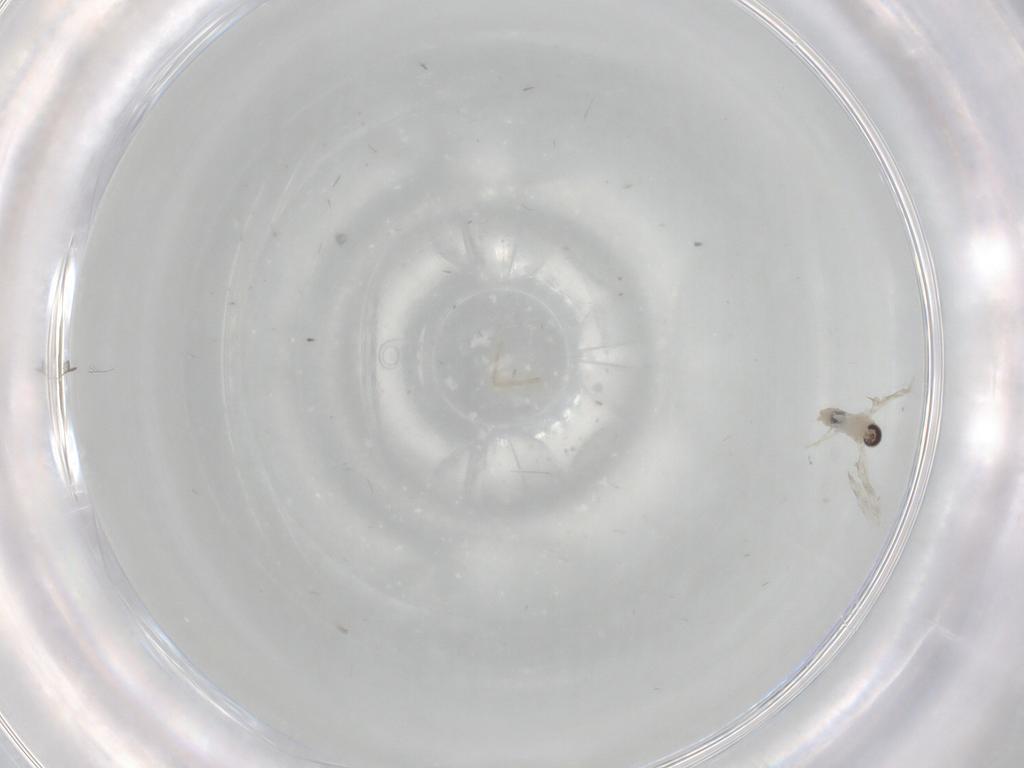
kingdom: Animalia
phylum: Arthropoda
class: Insecta
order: Diptera
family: Cecidomyiidae
